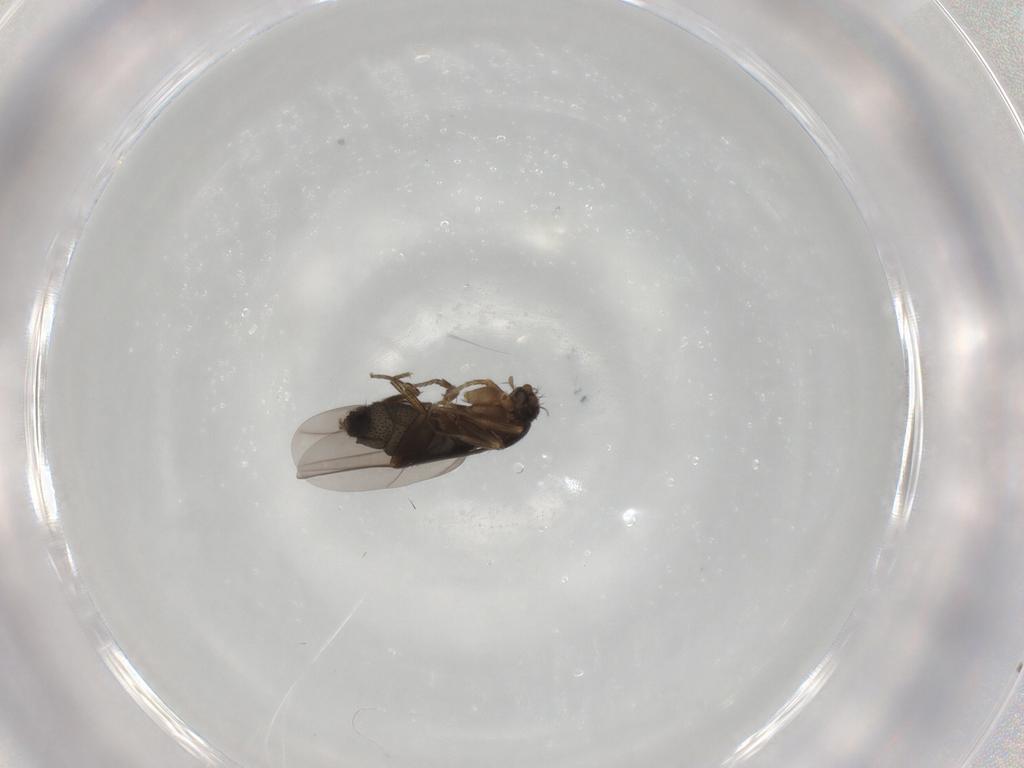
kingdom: Animalia
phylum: Arthropoda
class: Insecta
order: Diptera
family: Phoridae
